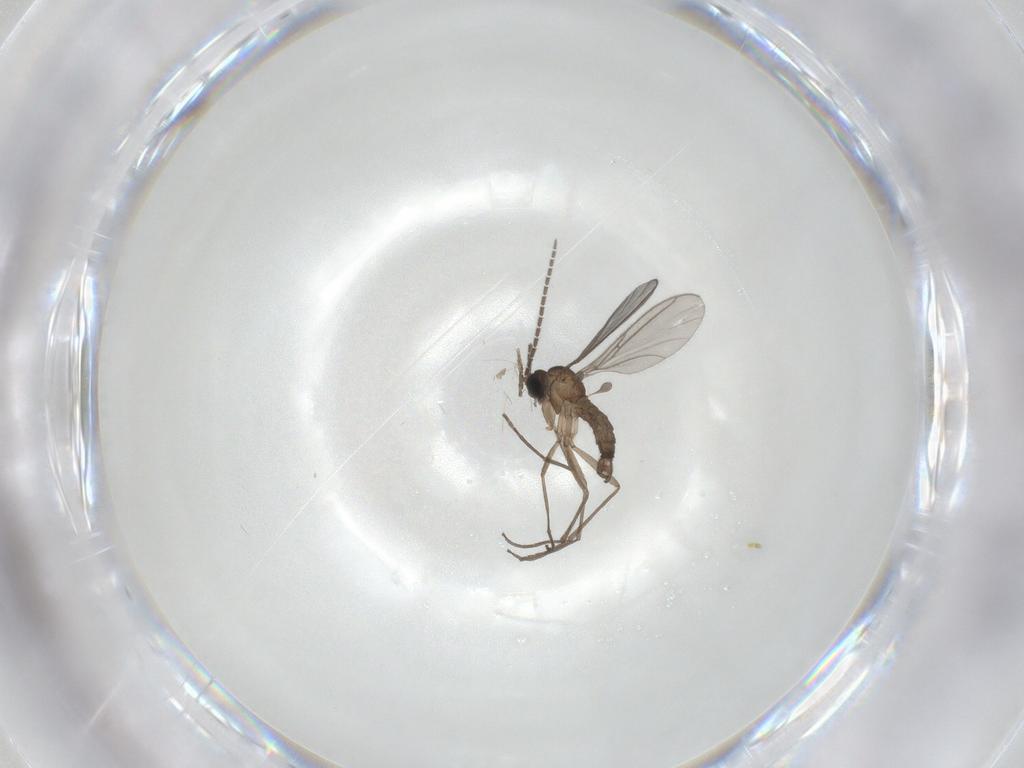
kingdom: Animalia
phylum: Arthropoda
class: Insecta
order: Diptera
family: Sciaridae
